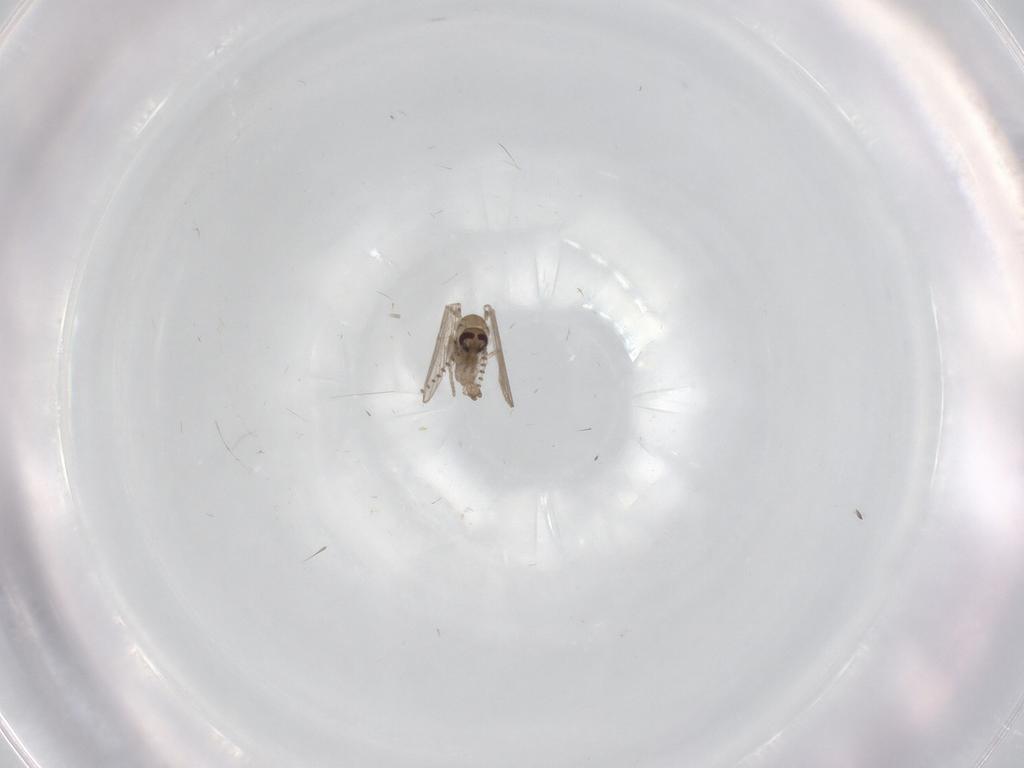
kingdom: Animalia
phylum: Arthropoda
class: Insecta
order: Diptera
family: Psychodidae
